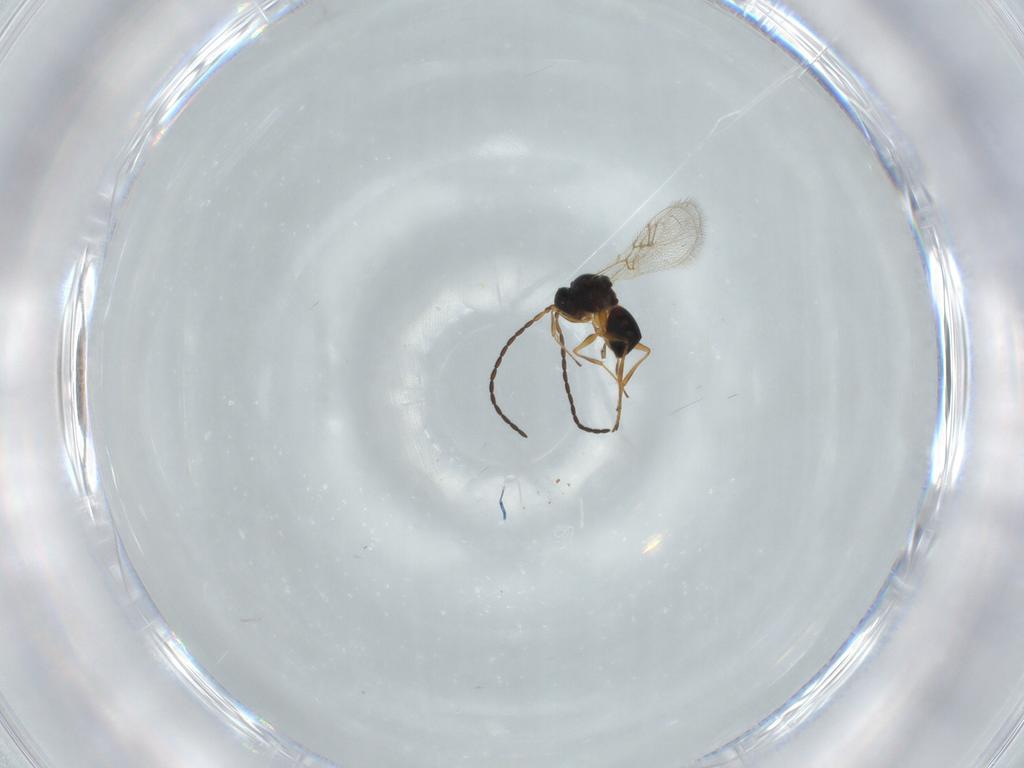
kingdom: Animalia
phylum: Arthropoda
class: Insecta
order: Hymenoptera
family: Figitidae
